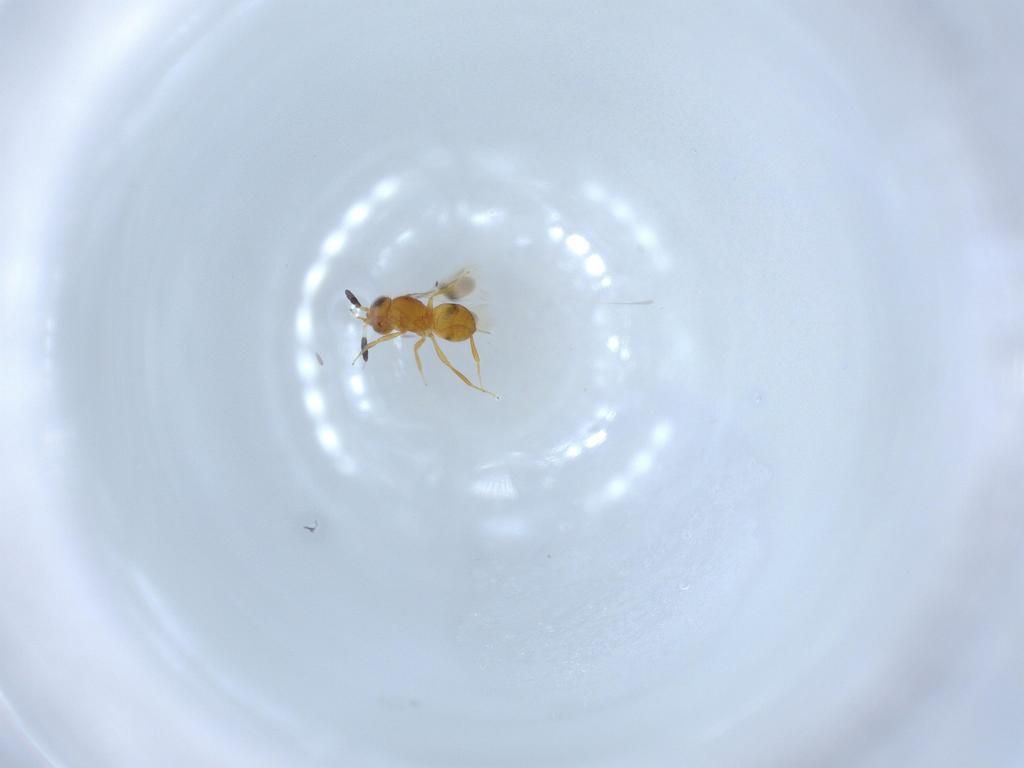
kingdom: Animalia
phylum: Arthropoda
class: Insecta
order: Hymenoptera
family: Scelionidae
